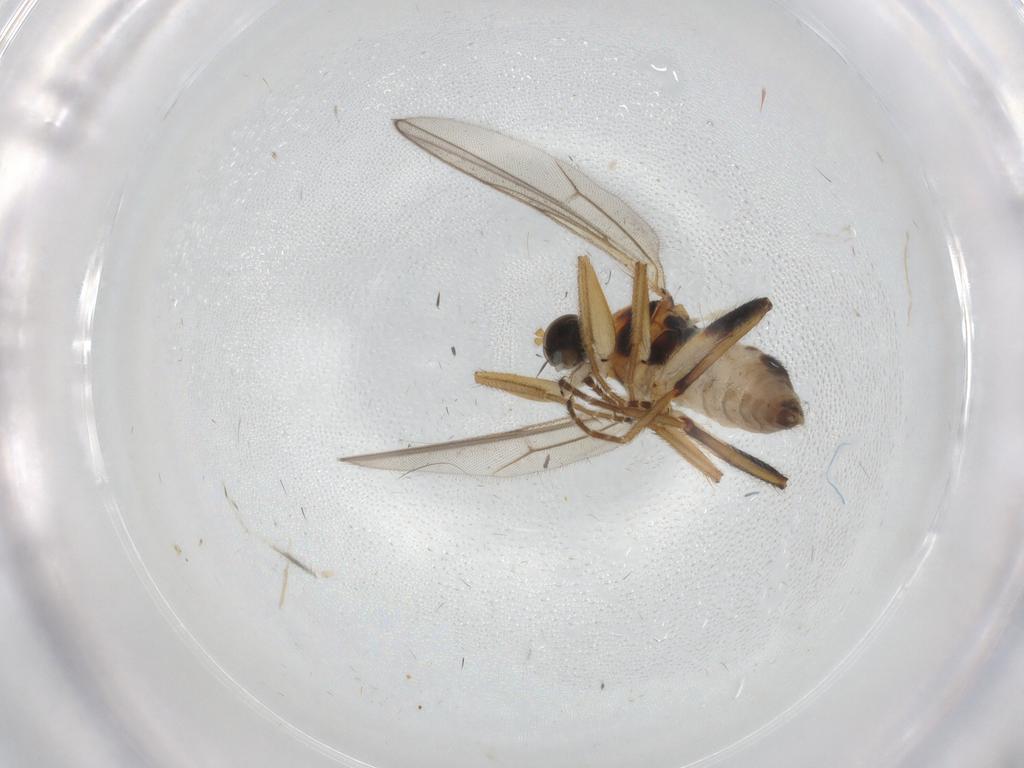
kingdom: Animalia
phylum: Arthropoda
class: Insecta
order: Diptera
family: Hybotidae
